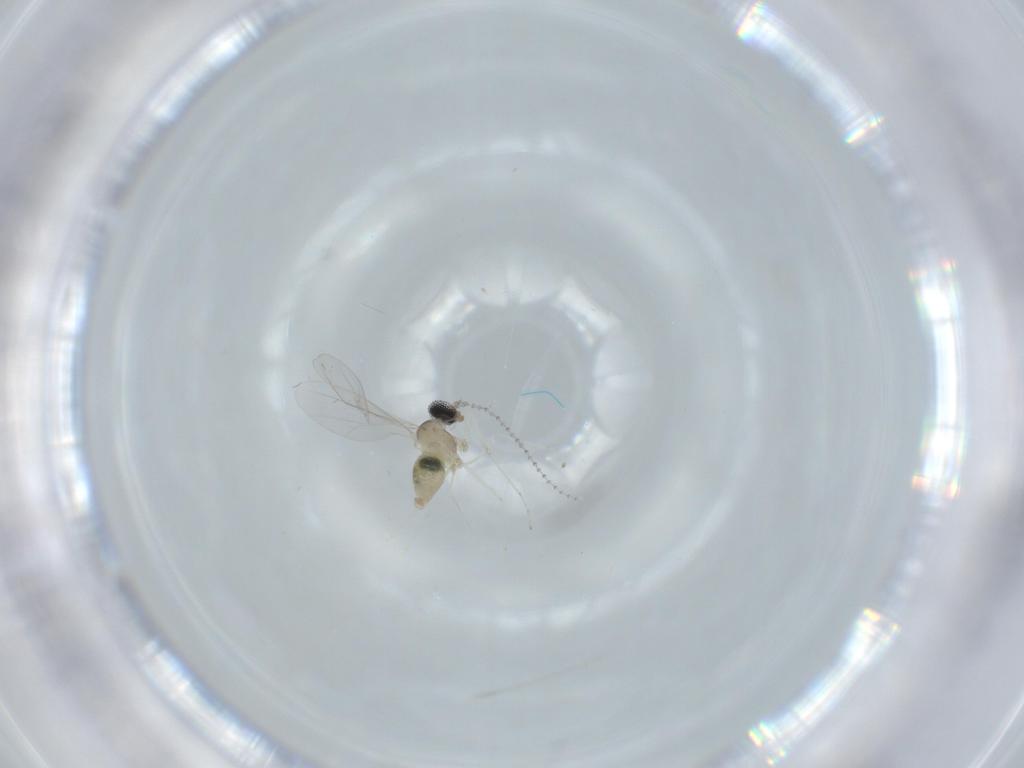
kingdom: Animalia
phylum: Arthropoda
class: Insecta
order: Diptera
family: Cecidomyiidae
